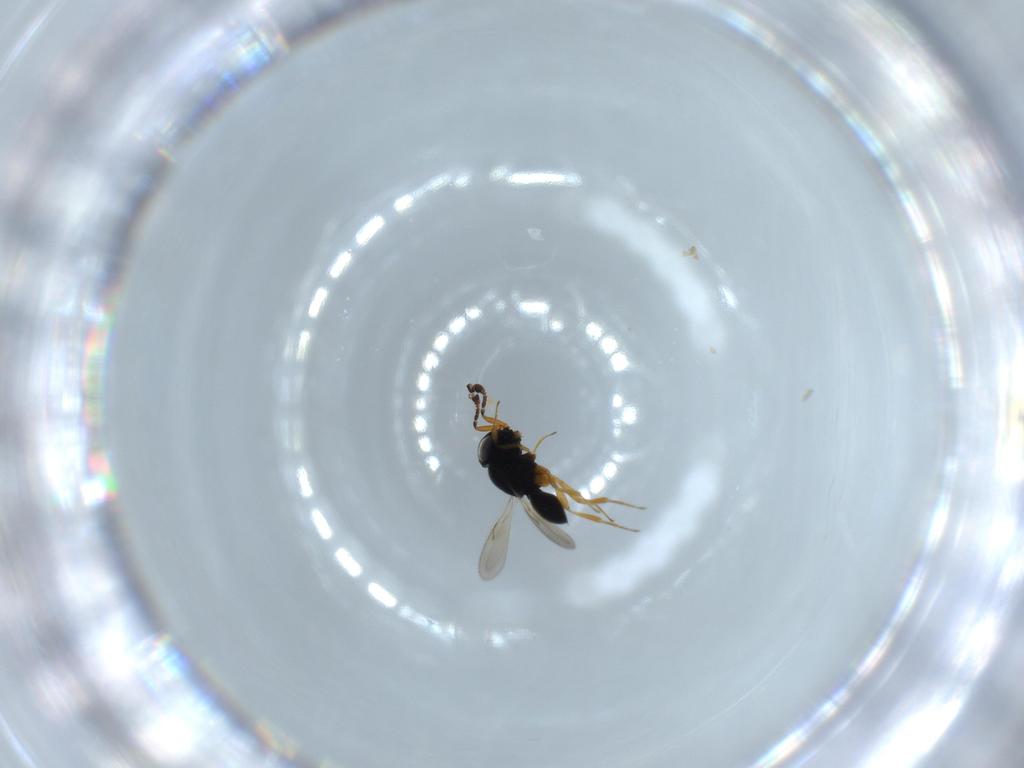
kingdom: Animalia
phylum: Arthropoda
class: Insecta
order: Hymenoptera
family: Scelionidae
